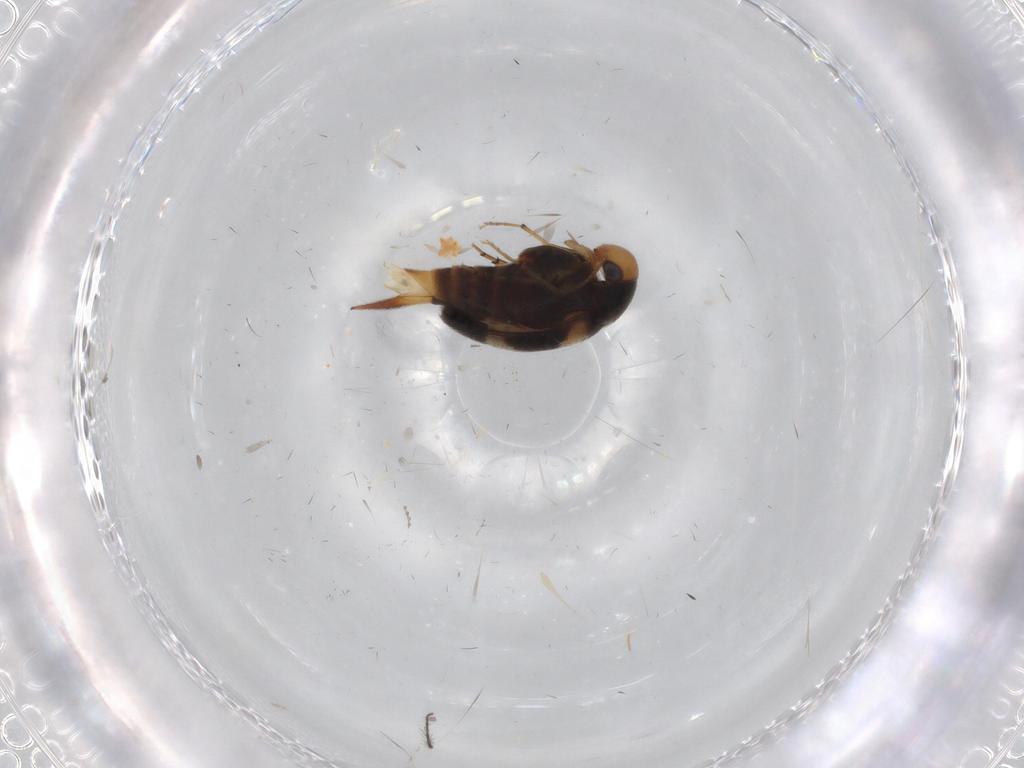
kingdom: Animalia
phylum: Arthropoda
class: Insecta
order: Coleoptera
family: Mordellidae
